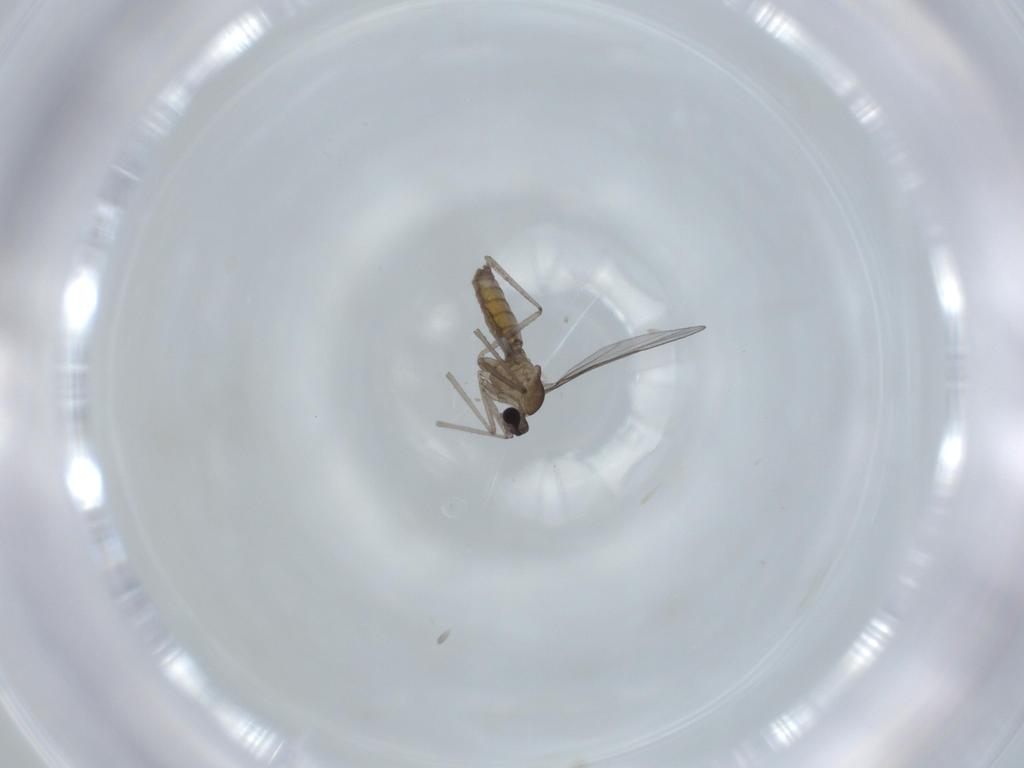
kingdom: Animalia
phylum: Arthropoda
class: Insecta
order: Diptera
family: Cecidomyiidae
